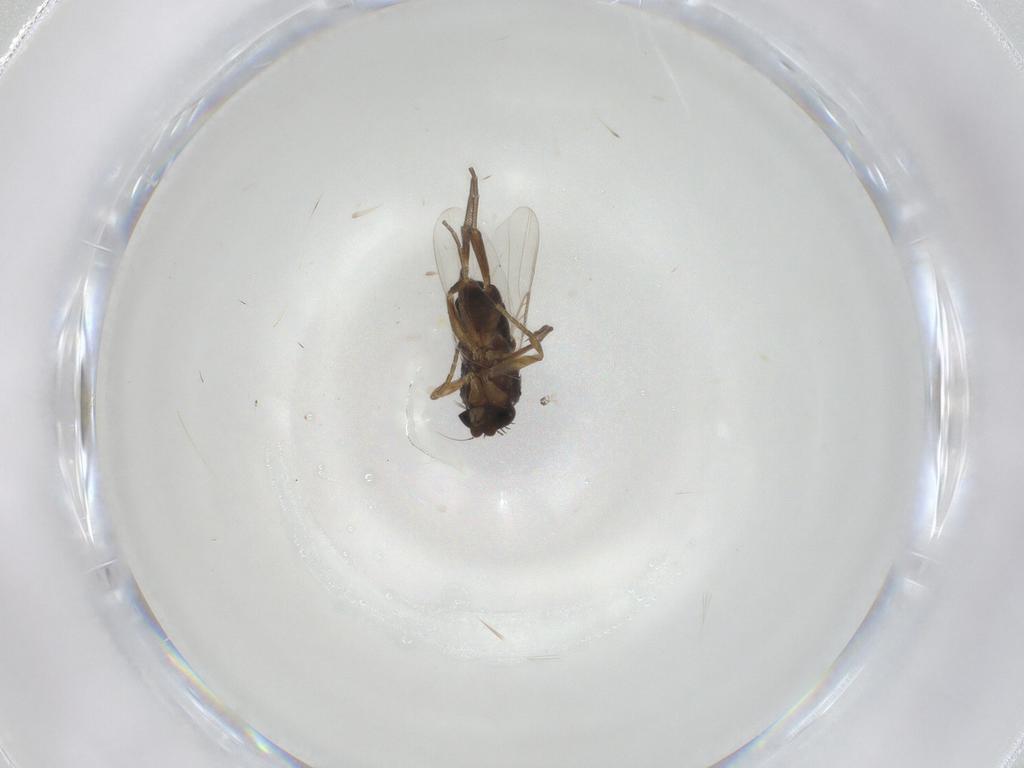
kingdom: Animalia
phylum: Arthropoda
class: Insecta
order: Diptera
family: Phoridae
